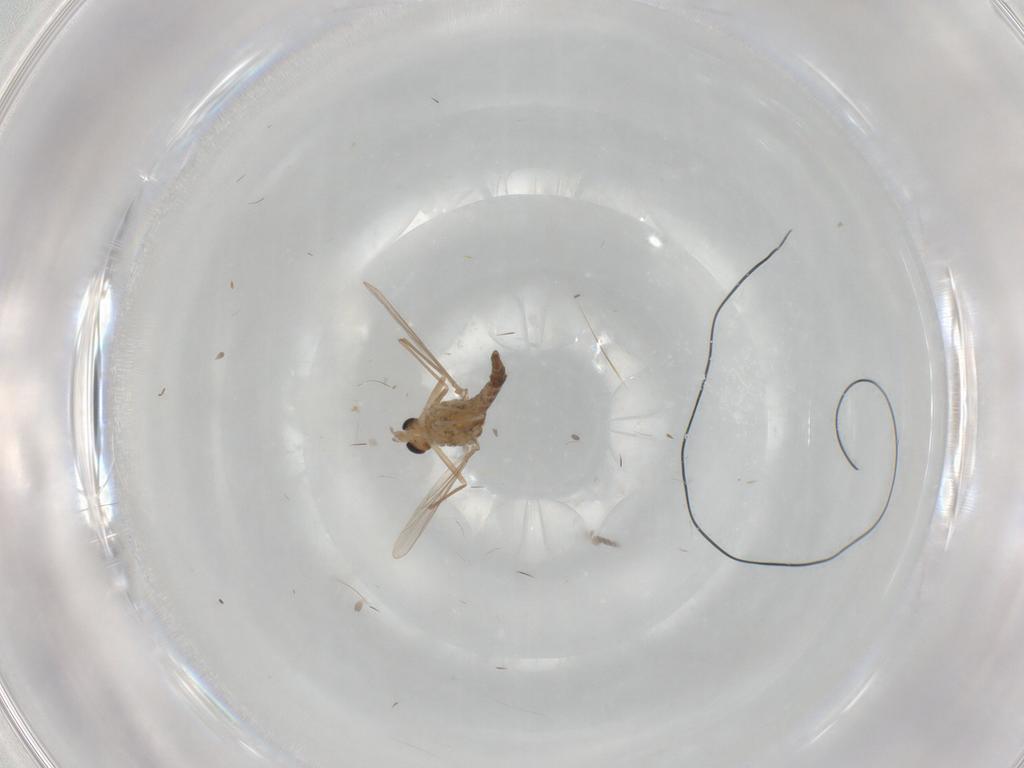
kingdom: Animalia
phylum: Arthropoda
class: Insecta
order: Diptera
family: Chironomidae
